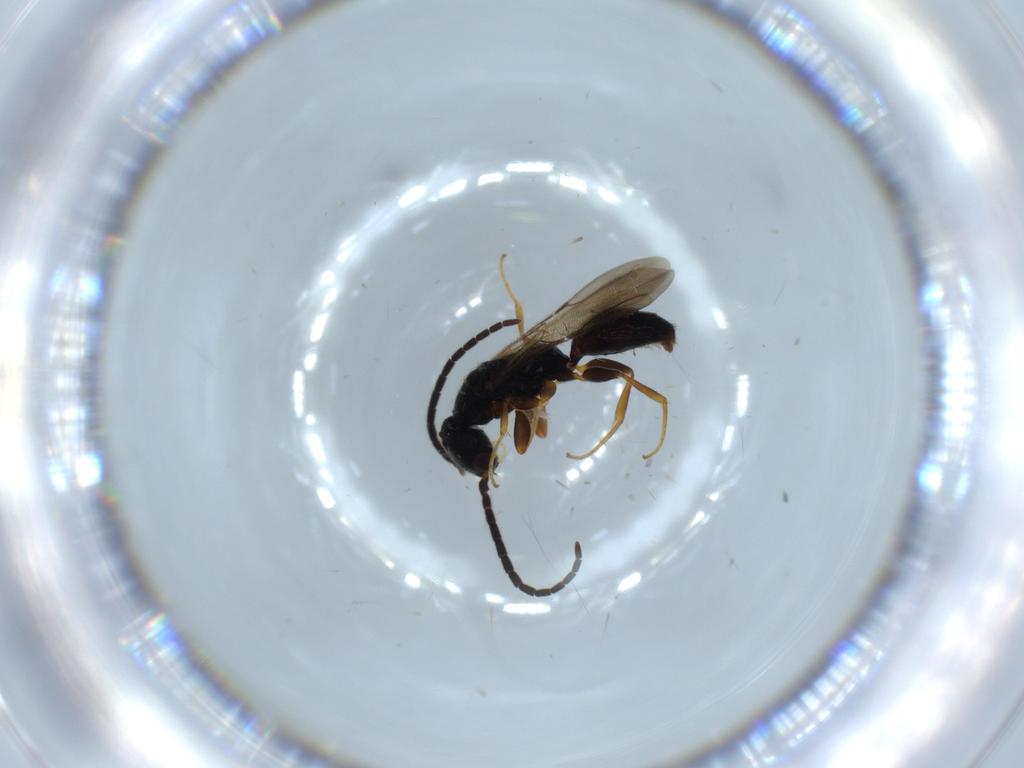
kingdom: Animalia
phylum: Arthropoda
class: Insecta
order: Hymenoptera
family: Bethylidae
